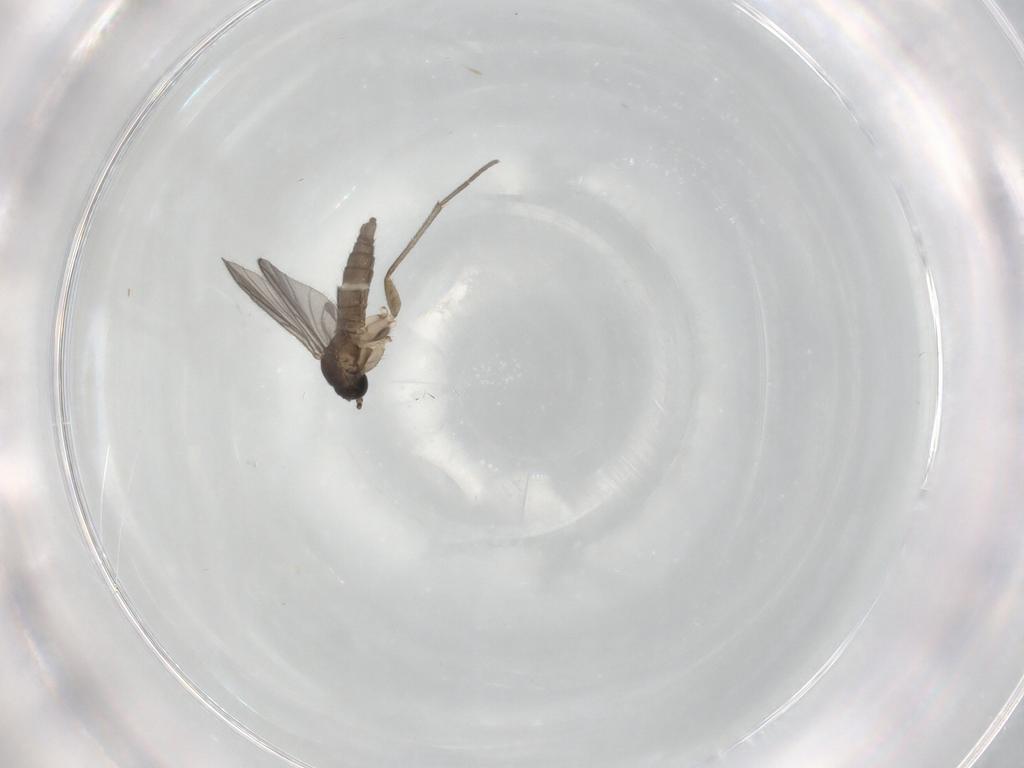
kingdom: Animalia
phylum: Arthropoda
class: Insecta
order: Diptera
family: Sciaridae
